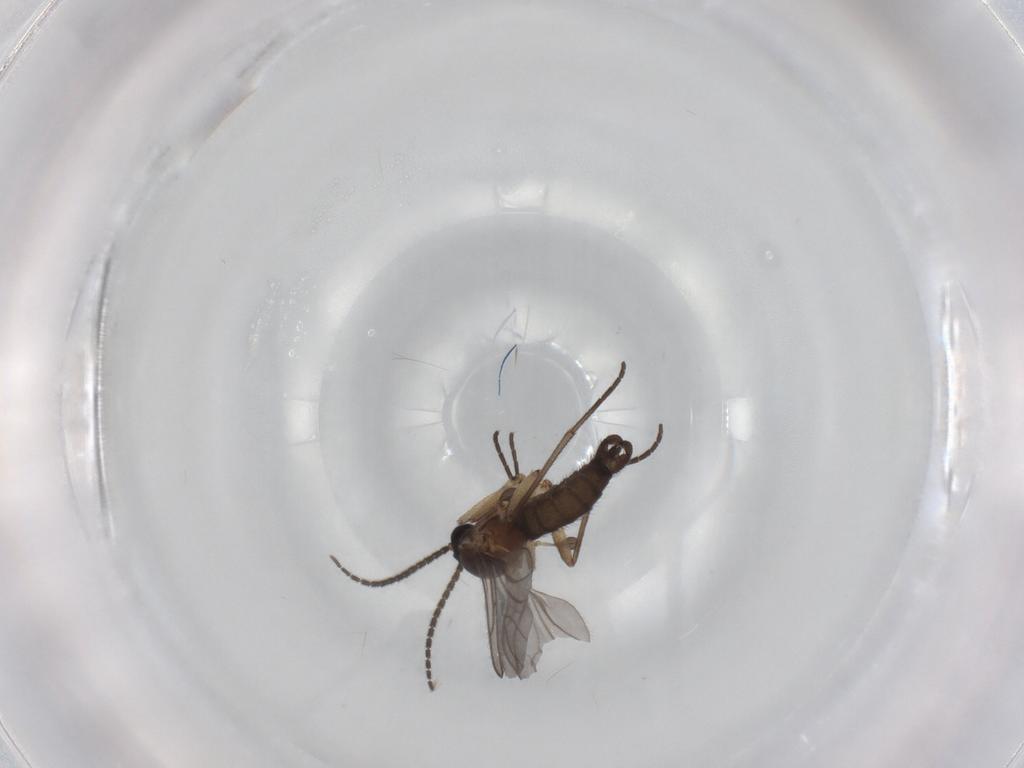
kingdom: Animalia
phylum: Arthropoda
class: Insecta
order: Diptera
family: Sciaridae
